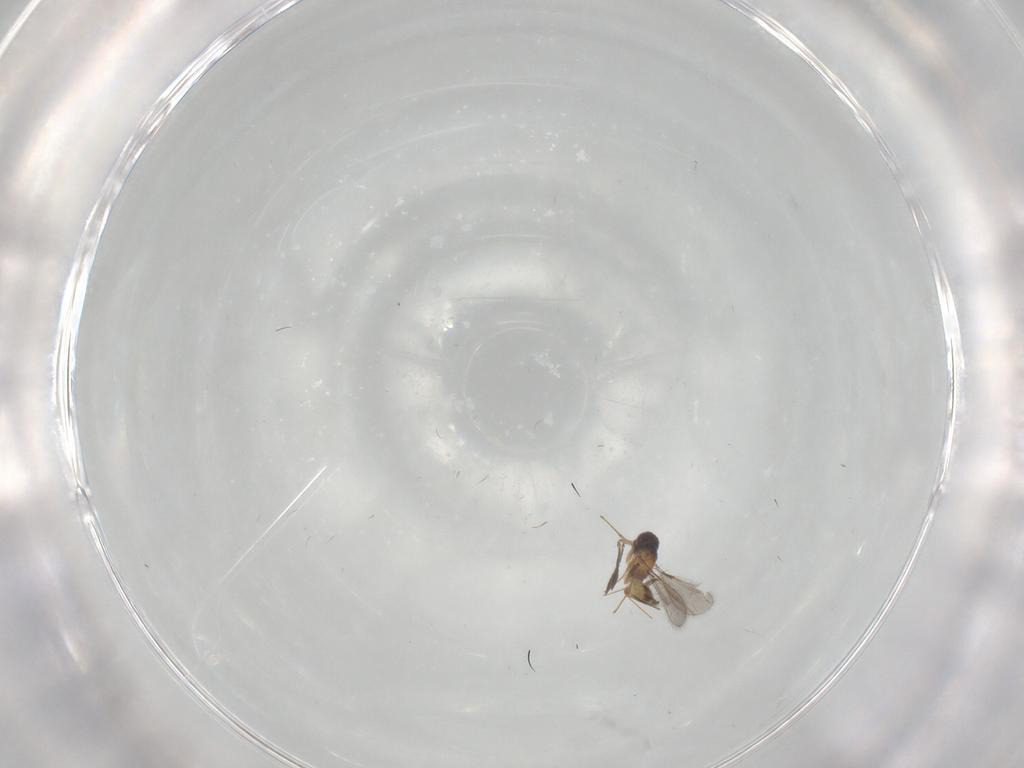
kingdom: Animalia
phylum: Arthropoda
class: Insecta
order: Hymenoptera
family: Mymaridae
